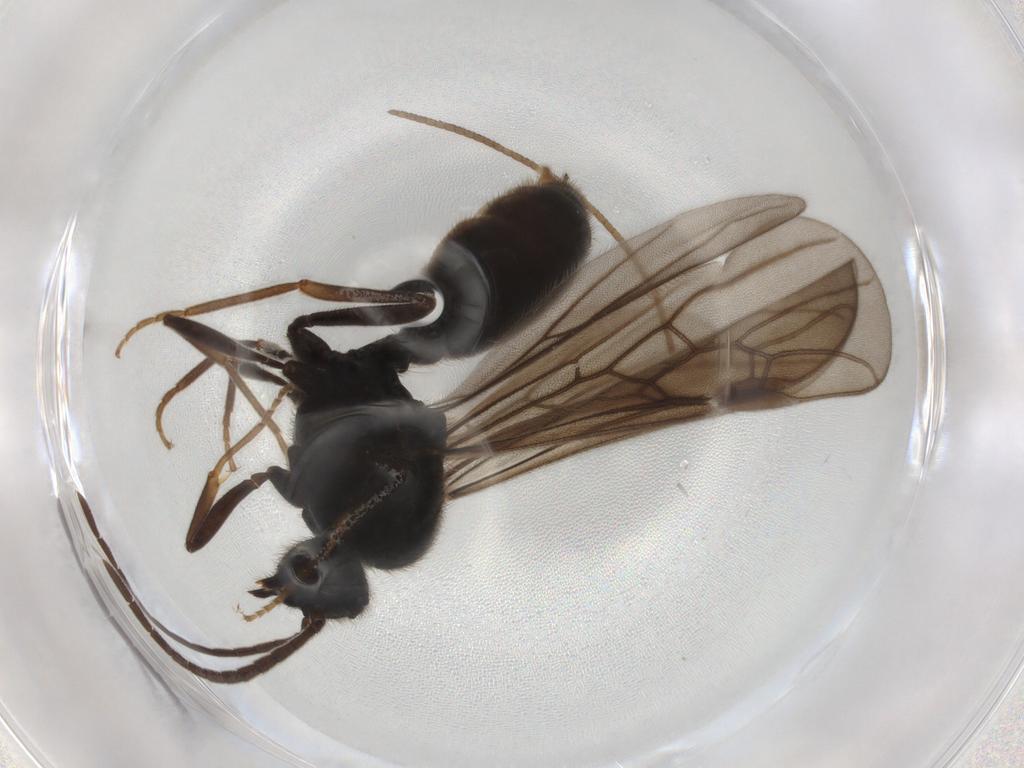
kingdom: Animalia
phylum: Arthropoda
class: Insecta
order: Hymenoptera
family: Formicidae
